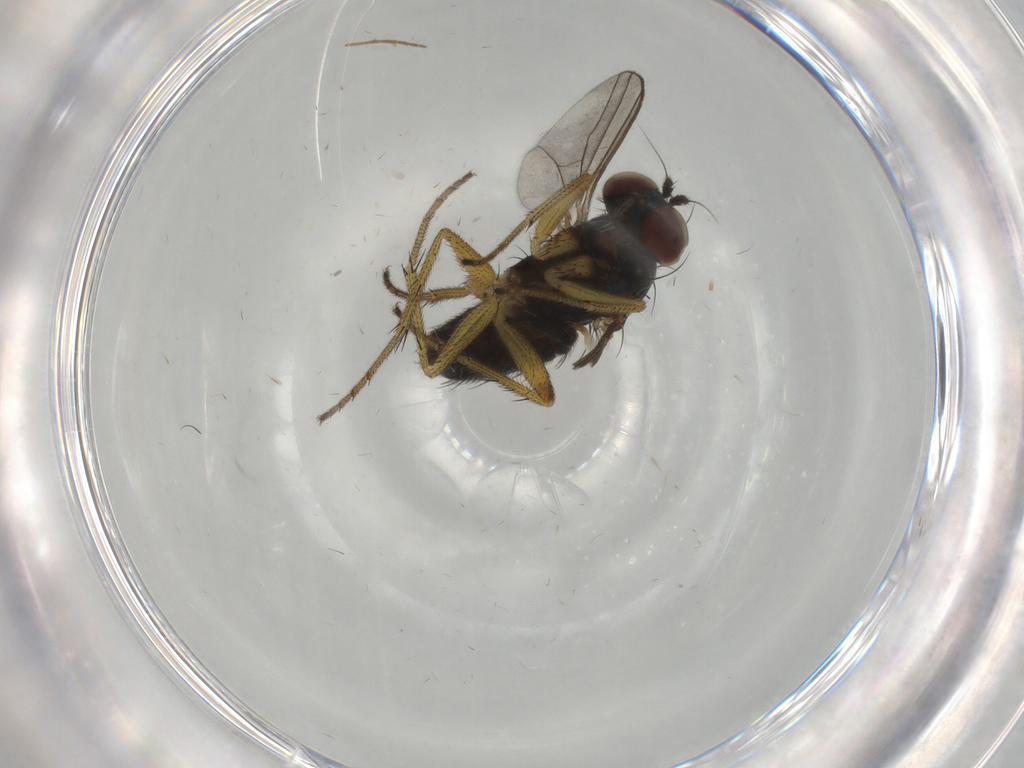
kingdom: Animalia
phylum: Arthropoda
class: Insecta
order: Diptera
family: Dolichopodidae
